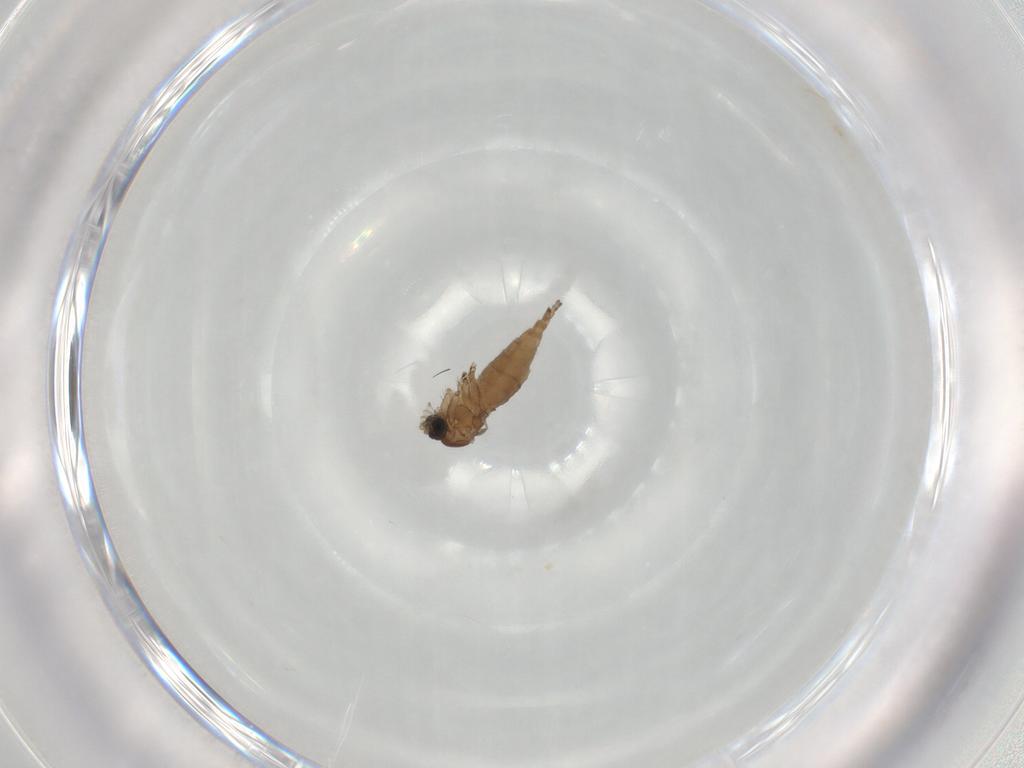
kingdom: Animalia
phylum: Arthropoda
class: Insecta
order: Diptera
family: Sciaridae
